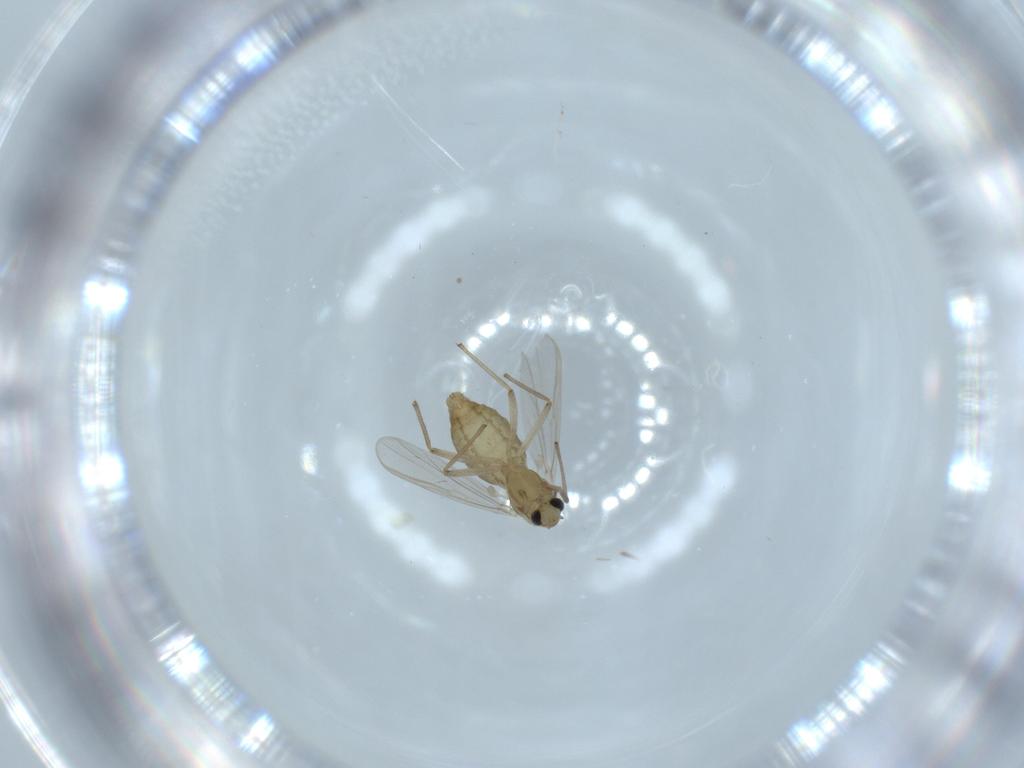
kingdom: Animalia
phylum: Arthropoda
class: Insecta
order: Diptera
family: Chironomidae
